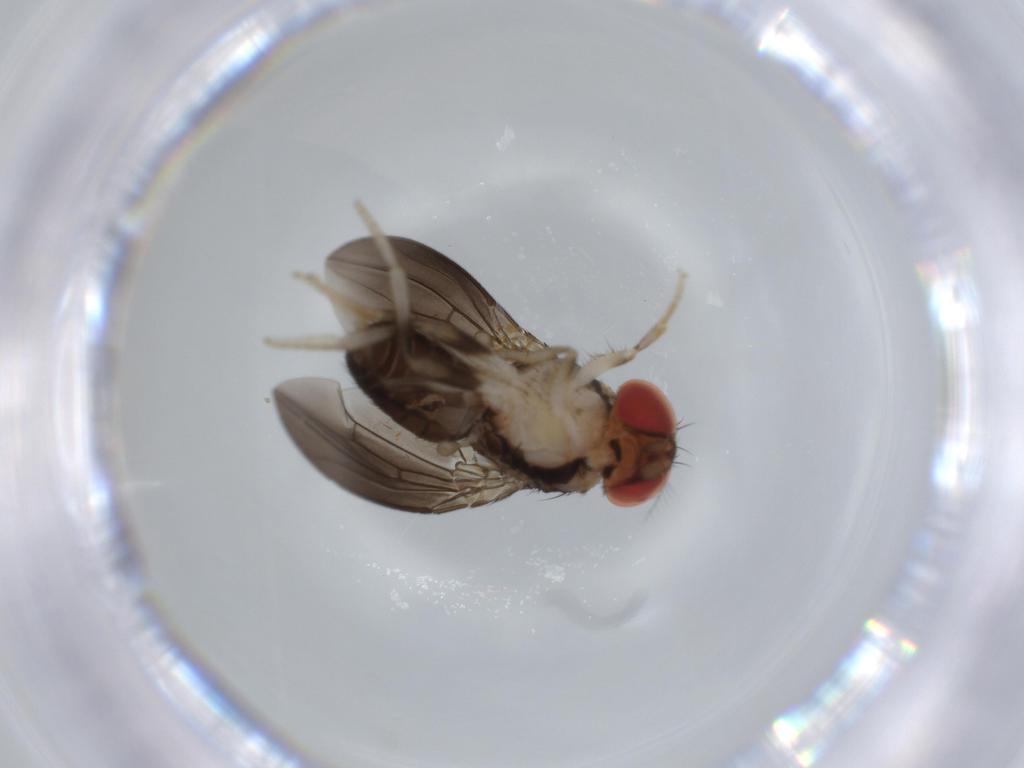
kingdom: Animalia
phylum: Arthropoda
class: Insecta
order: Diptera
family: Drosophilidae
